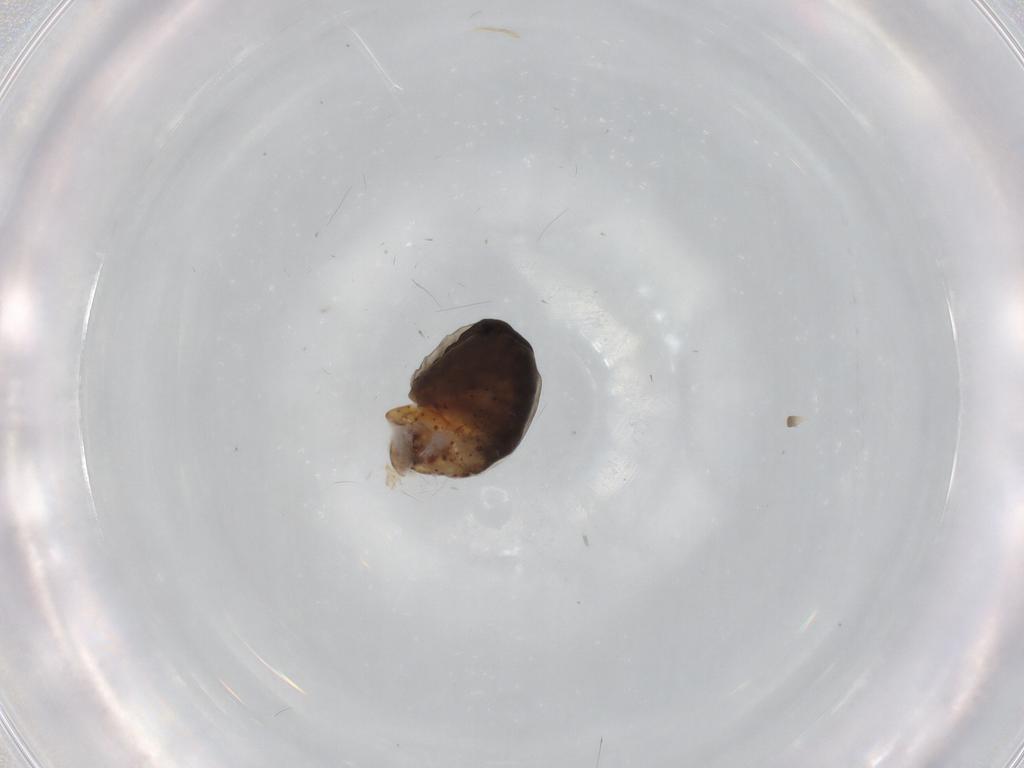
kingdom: Animalia
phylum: Arthropoda
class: Insecta
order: Hymenoptera
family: Dryinidae
